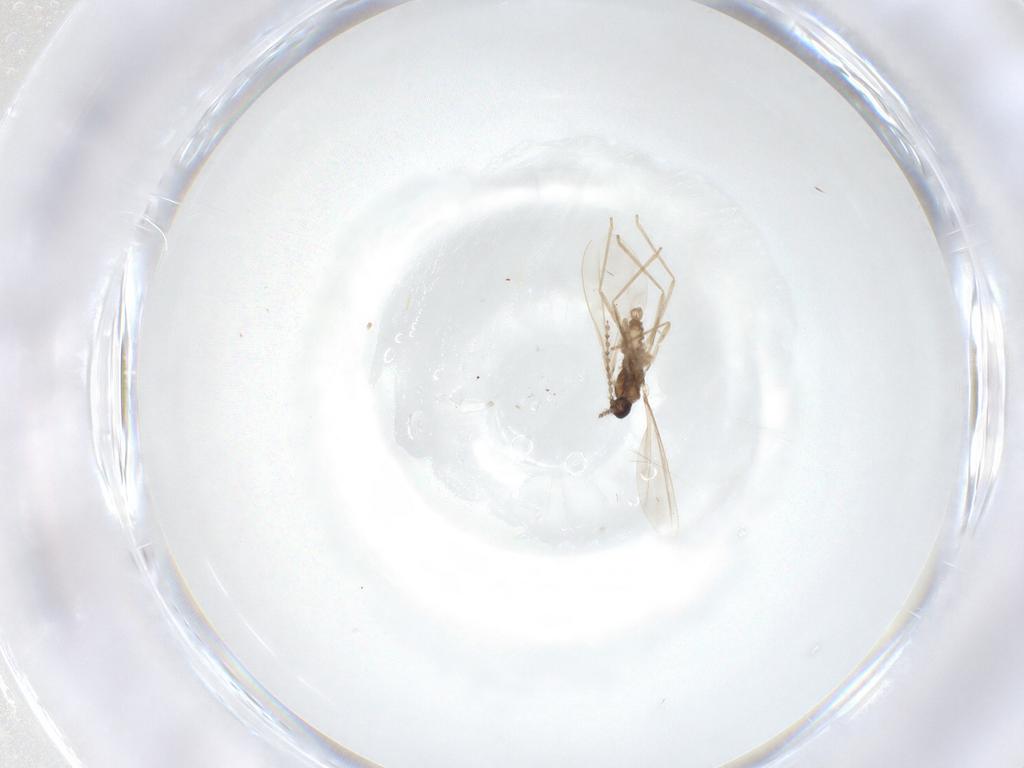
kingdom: Animalia
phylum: Arthropoda
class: Insecta
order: Diptera
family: Cecidomyiidae
